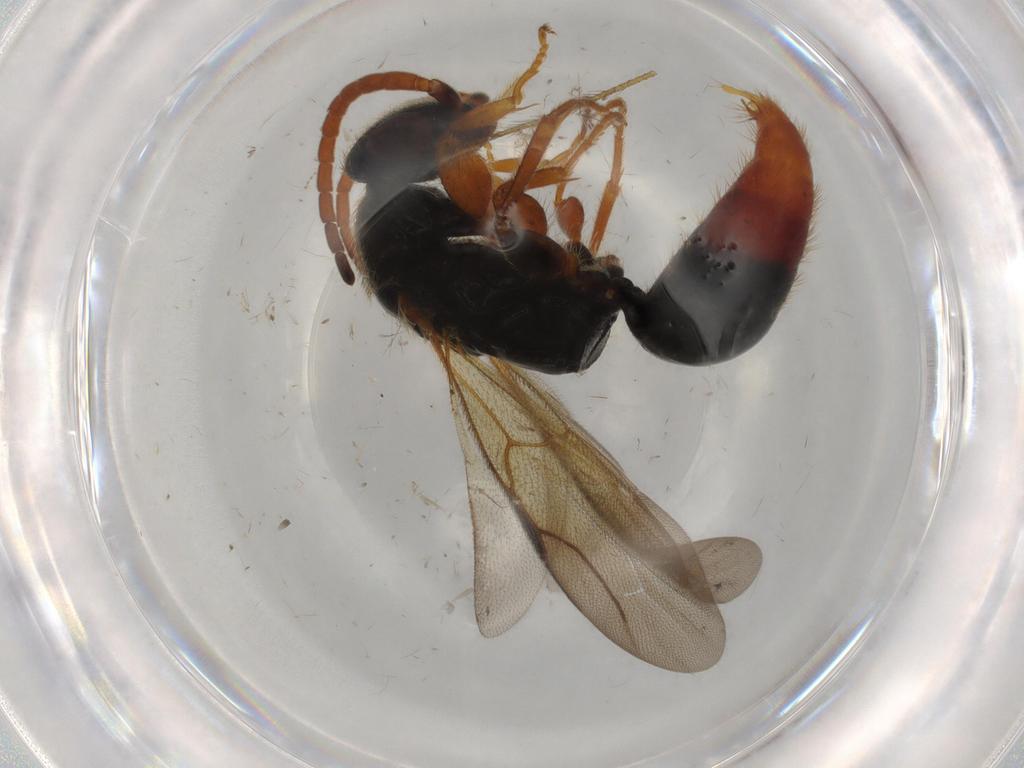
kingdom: Animalia
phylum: Arthropoda
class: Insecta
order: Hymenoptera
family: Bethylidae
